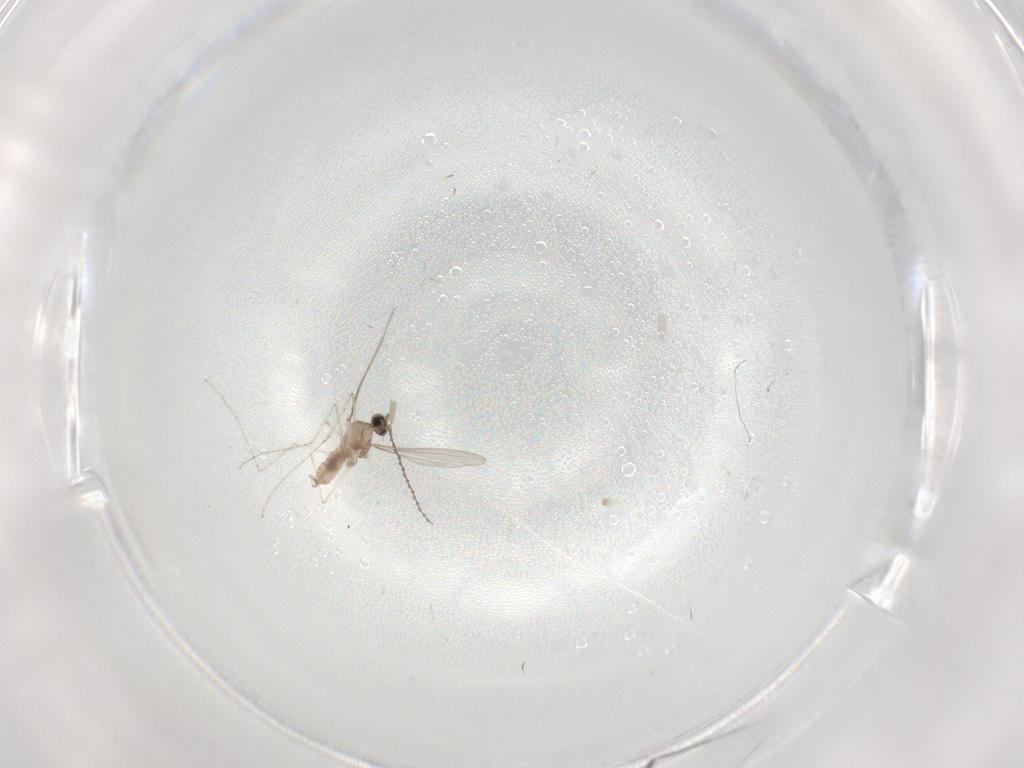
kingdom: Animalia
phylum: Arthropoda
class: Insecta
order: Diptera
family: Cecidomyiidae
